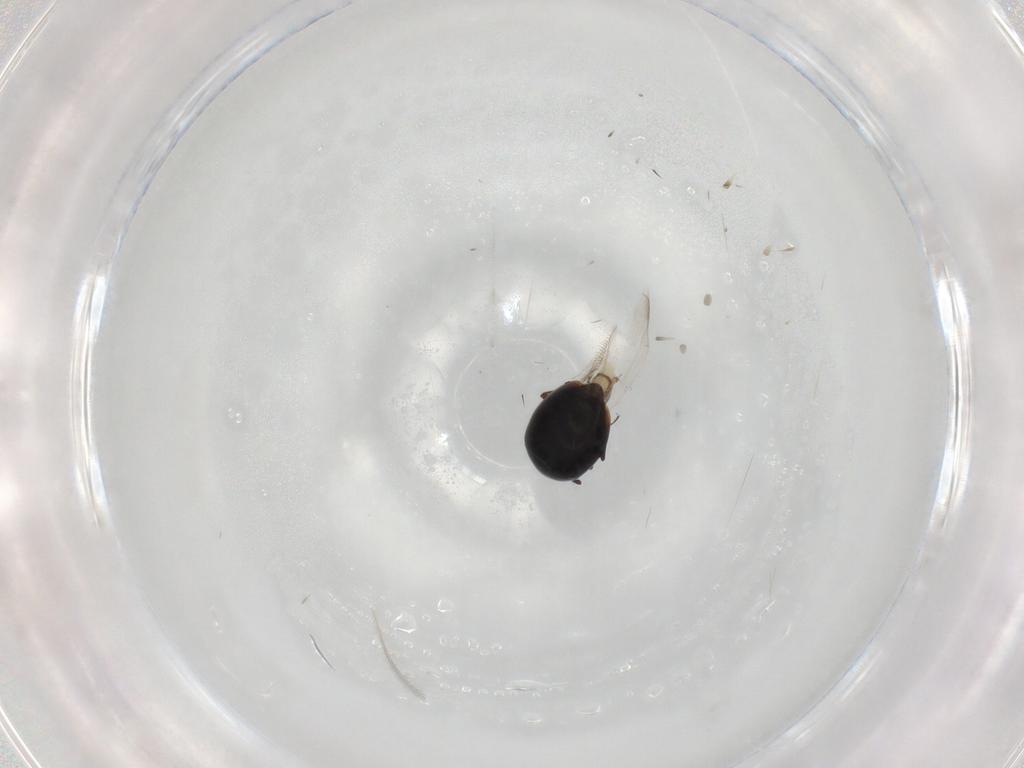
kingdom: Animalia
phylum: Arthropoda
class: Insecta
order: Coleoptera
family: Corylophidae
